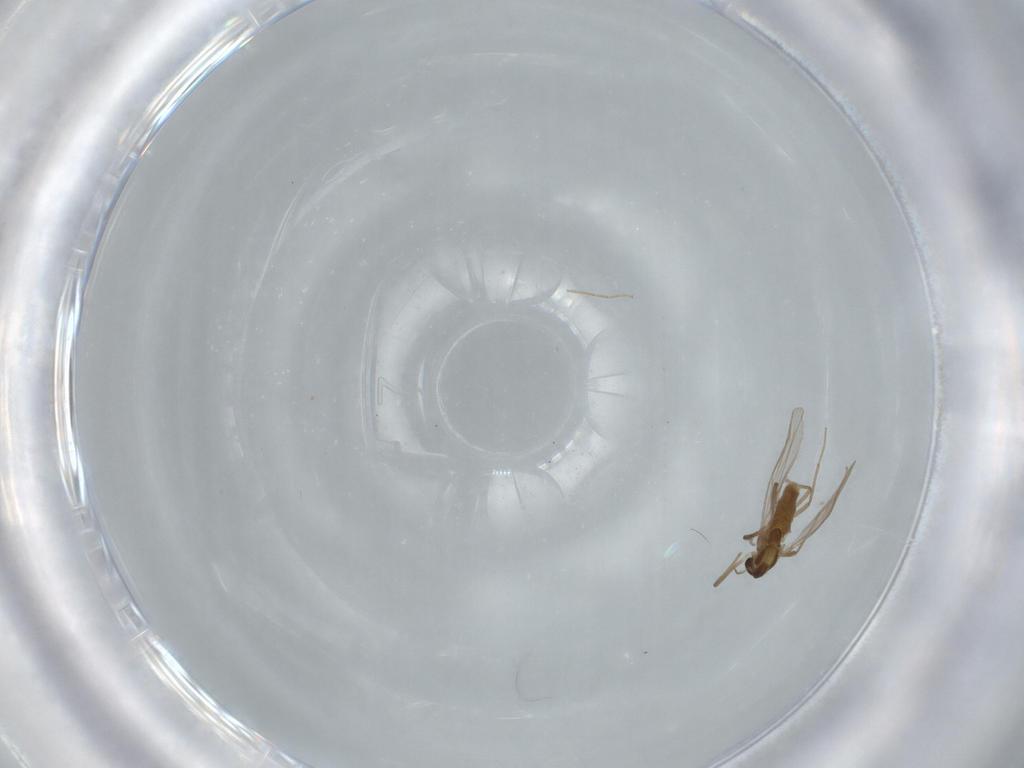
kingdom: Animalia
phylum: Arthropoda
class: Insecta
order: Diptera
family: Chironomidae
